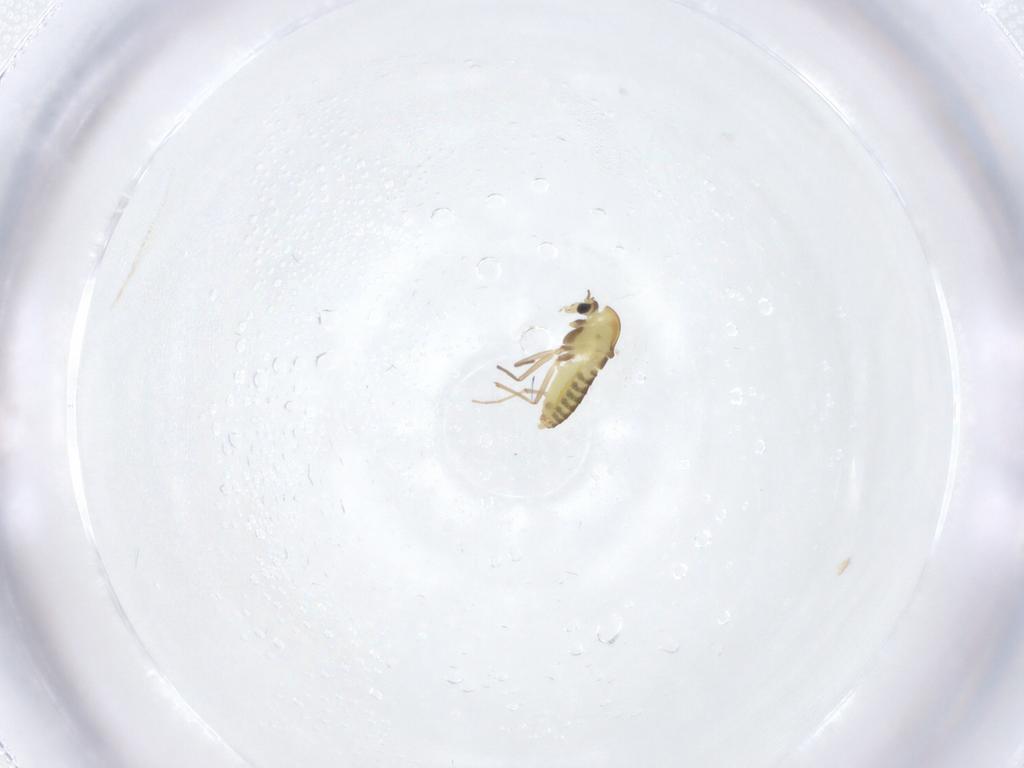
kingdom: Animalia
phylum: Arthropoda
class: Insecta
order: Diptera
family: Chironomidae
